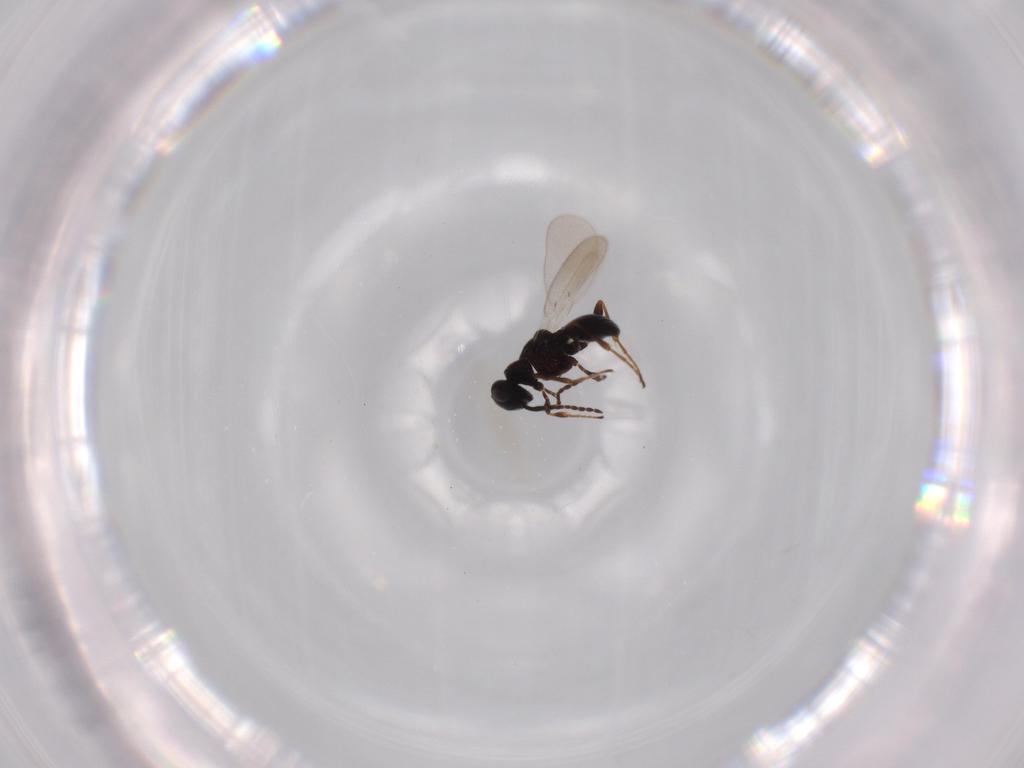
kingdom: Animalia
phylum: Arthropoda
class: Insecta
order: Hymenoptera
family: Platygastridae
